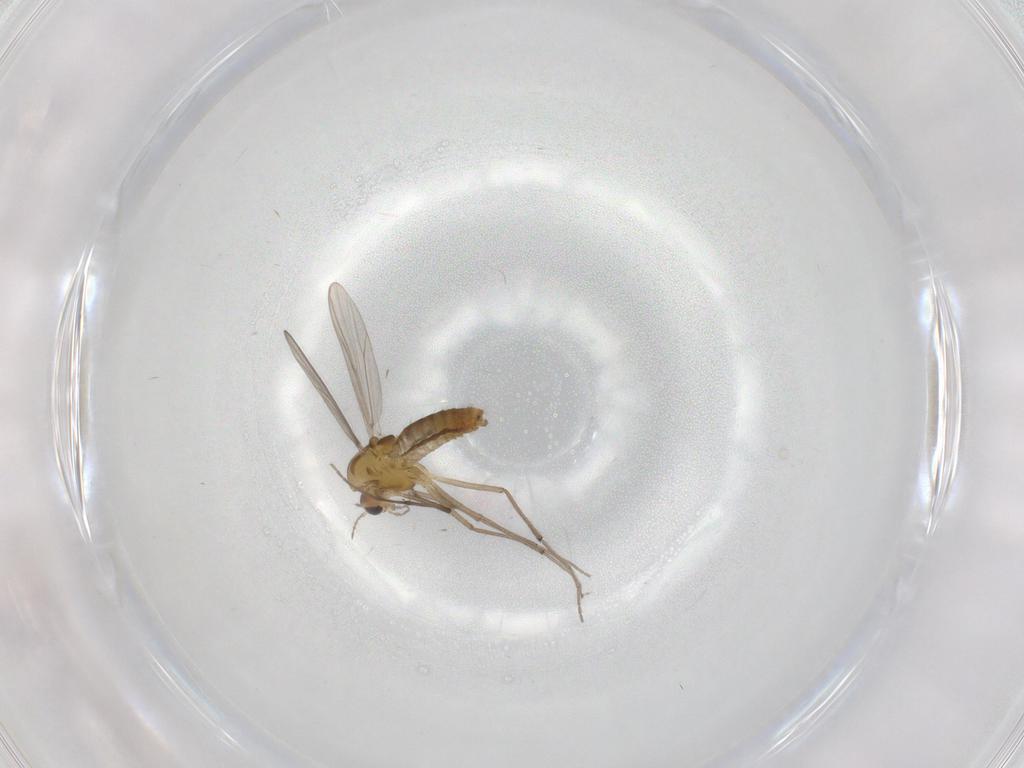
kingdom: Animalia
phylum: Arthropoda
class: Insecta
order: Diptera
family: Chironomidae
